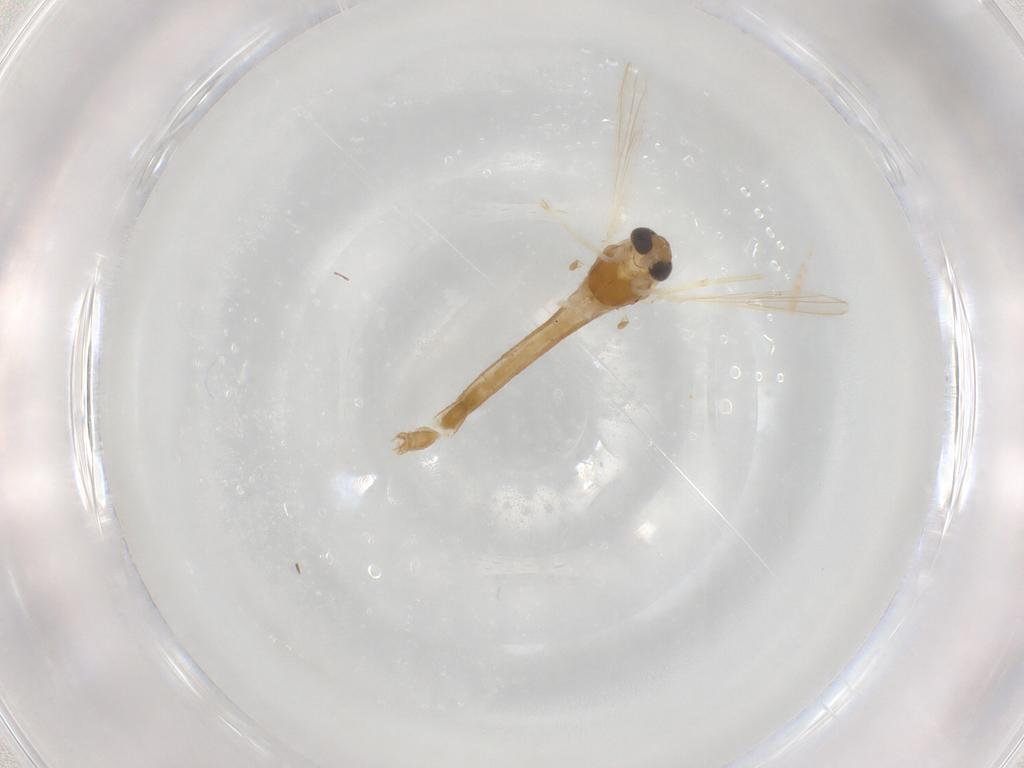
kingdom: Animalia
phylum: Arthropoda
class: Insecta
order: Diptera
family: Chironomidae
